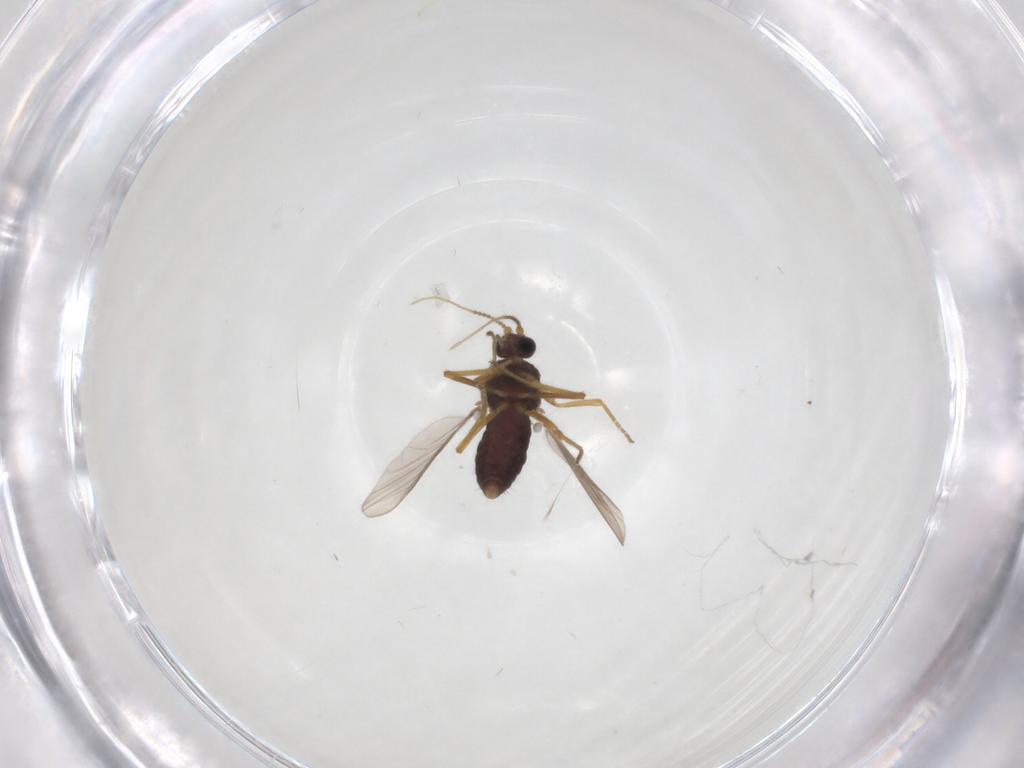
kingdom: Animalia
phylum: Arthropoda
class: Insecta
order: Diptera
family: Ceratopogonidae
